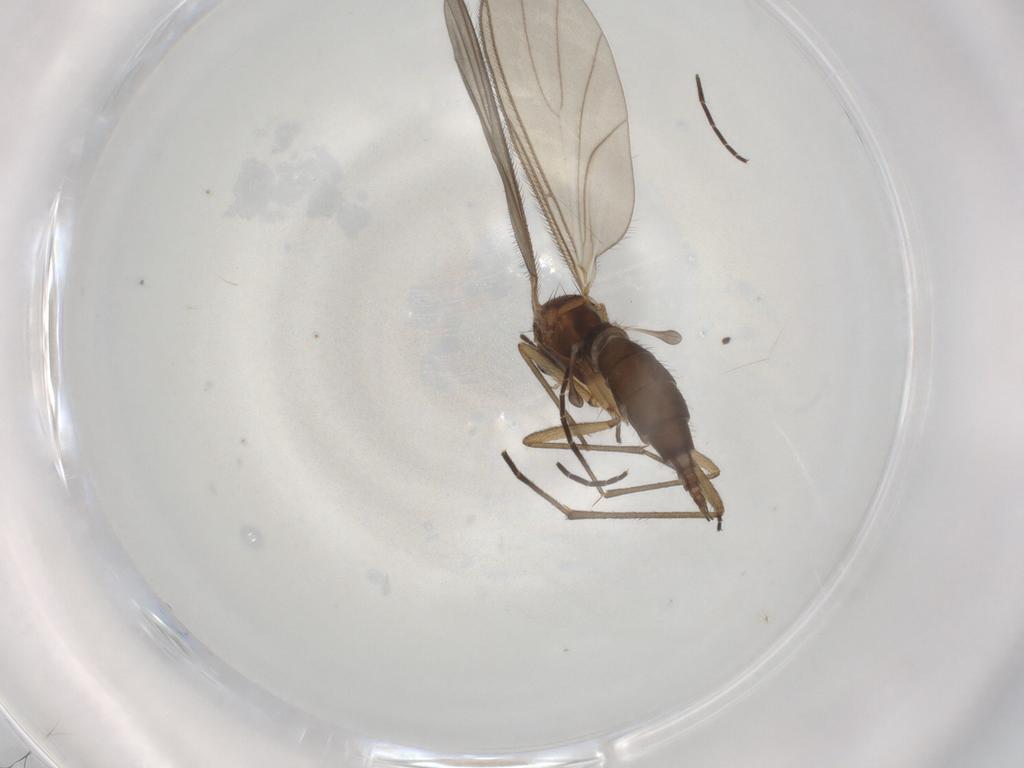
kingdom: Animalia
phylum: Arthropoda
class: Insecta
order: Diptera
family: Sciaridae
